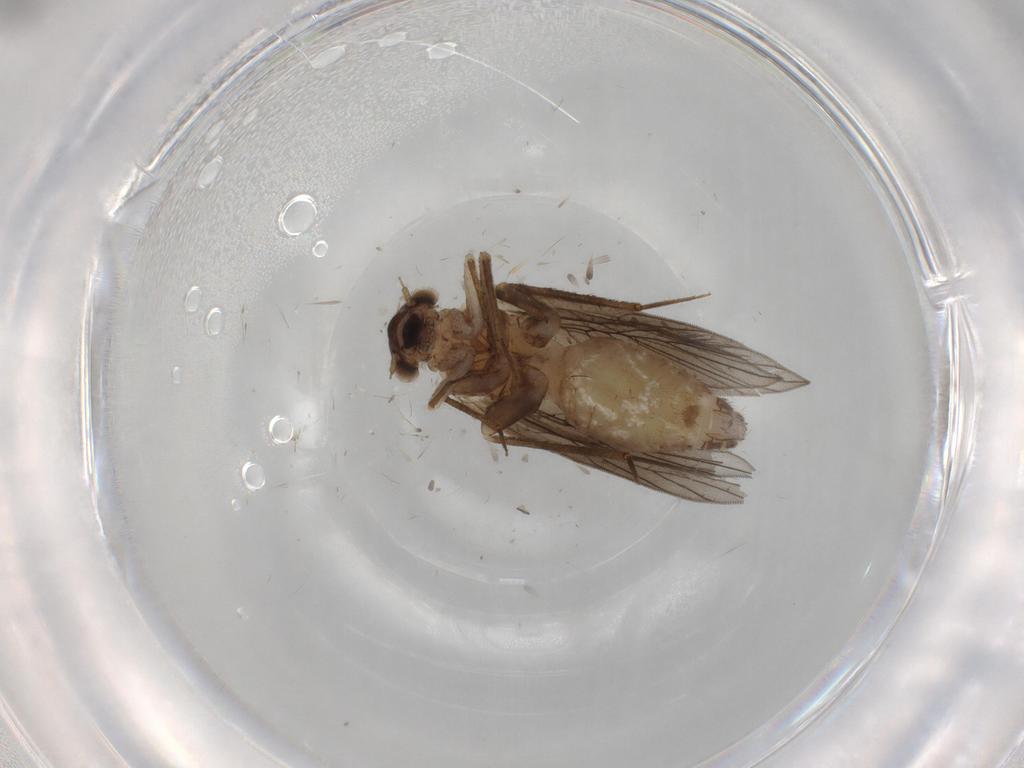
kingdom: Animalia
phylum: Arthropoda
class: Insecta
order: Psocodea
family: Lepidopsocidae
